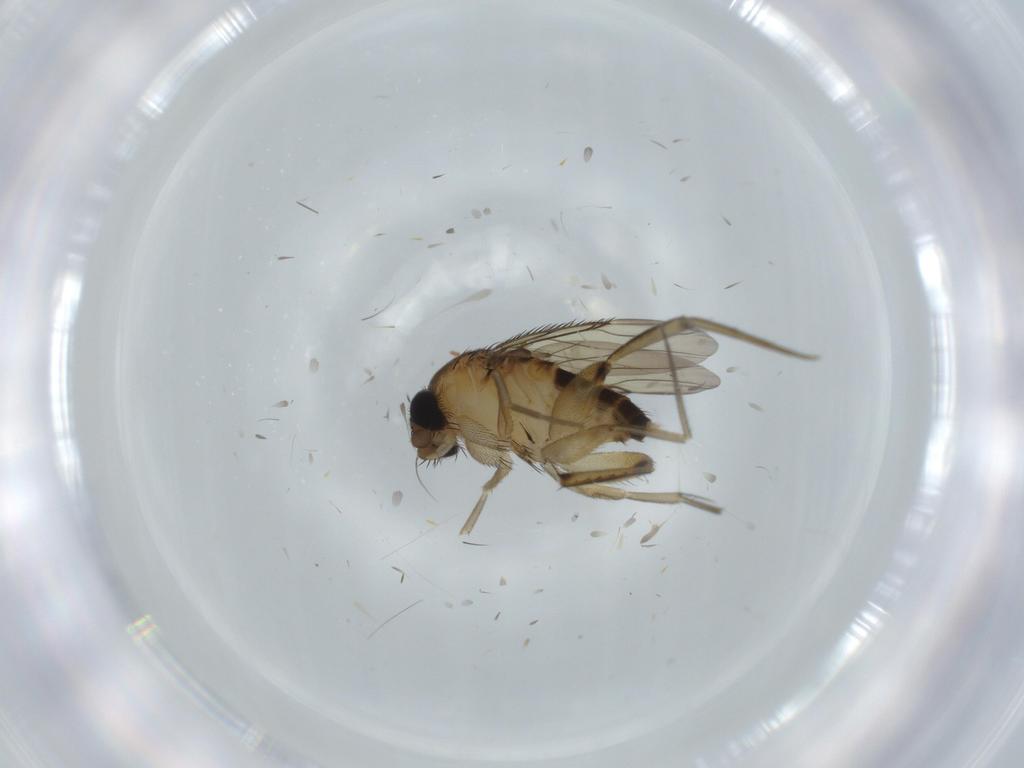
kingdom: Animalia
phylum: Arthropoda
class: Insecta
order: Diptera
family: Phoridae
